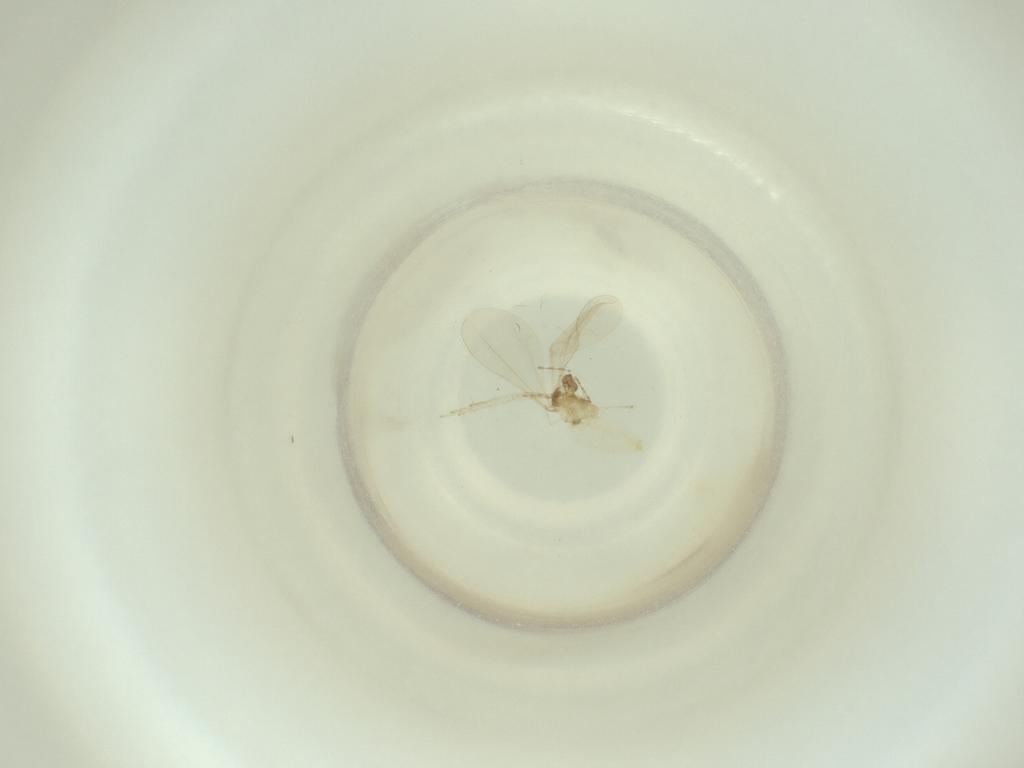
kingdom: Animalia
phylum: Arthropoda
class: Insecta
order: Diptera
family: Cecidomyiidae
